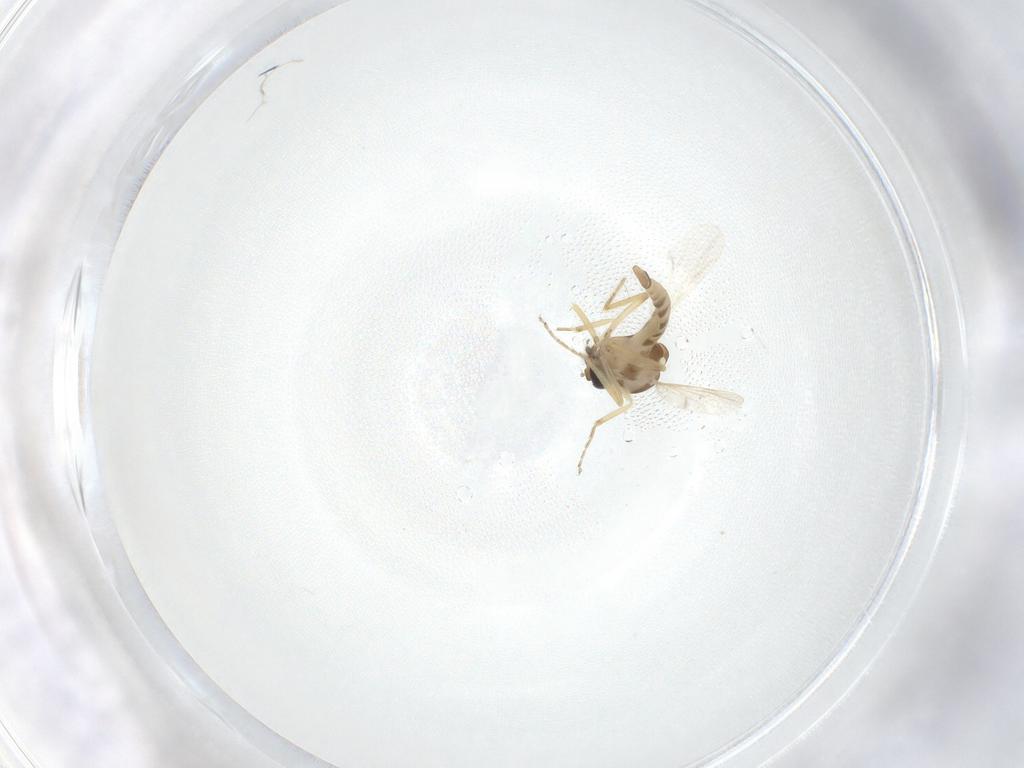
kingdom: Animalia
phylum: Arthropoda
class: Insecta
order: Diptera
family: Ceratopogonidae
